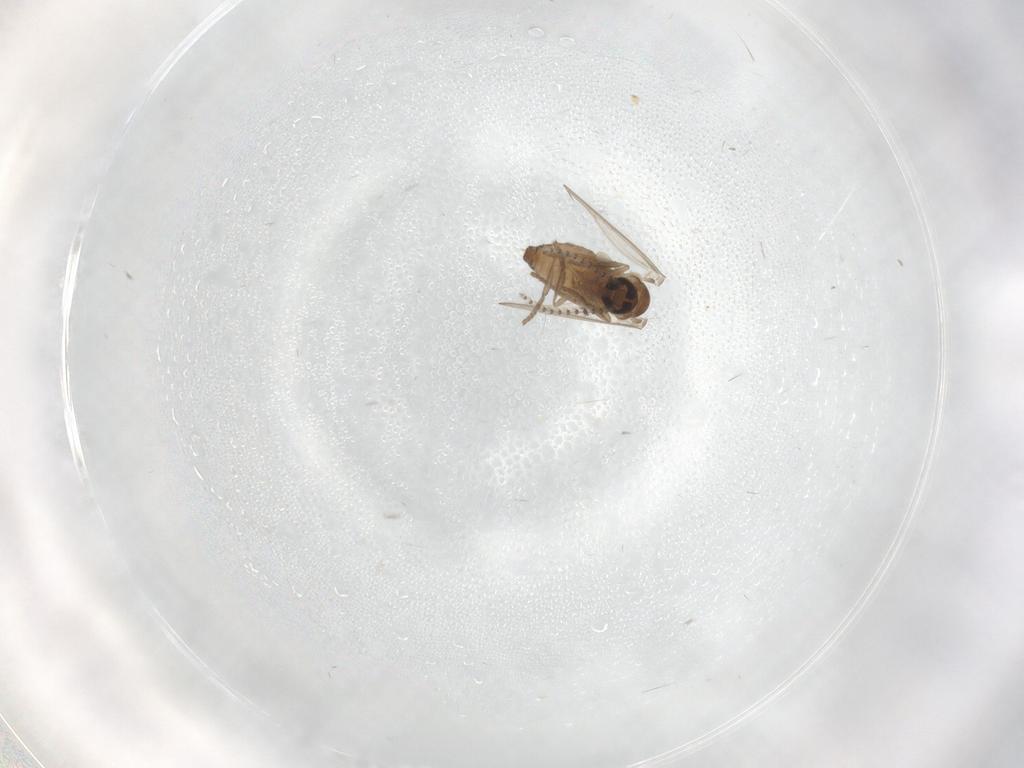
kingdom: Animalia
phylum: Arthropoda
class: Insecta
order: Diptera
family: Psychodidae
